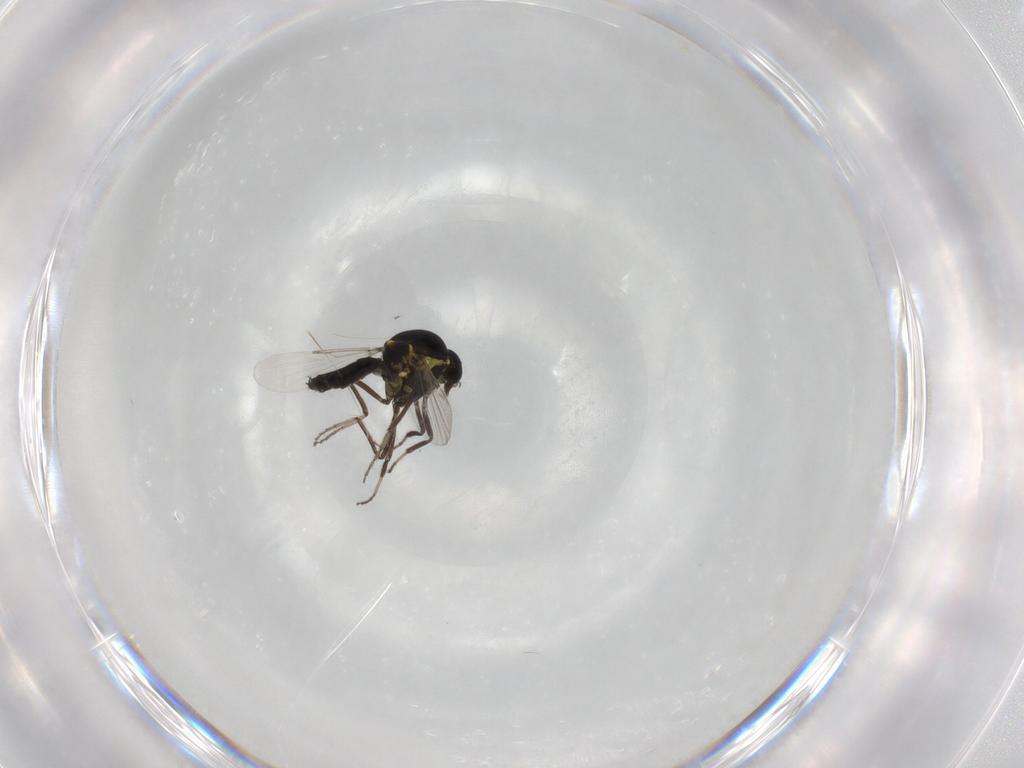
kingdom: Animalia
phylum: Arthropoda
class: Insecta
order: Diptera
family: Ceratopogonidae
